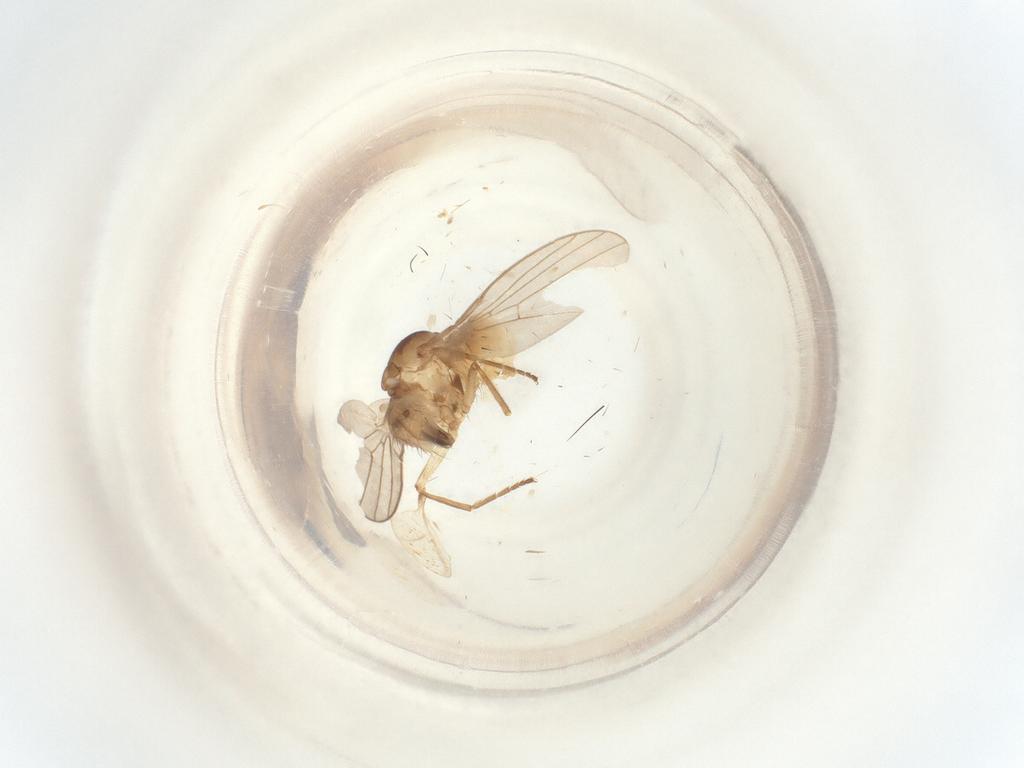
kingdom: Animalia
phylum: Arthropoda
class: Insecta
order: Diptera
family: Agromyzidae
